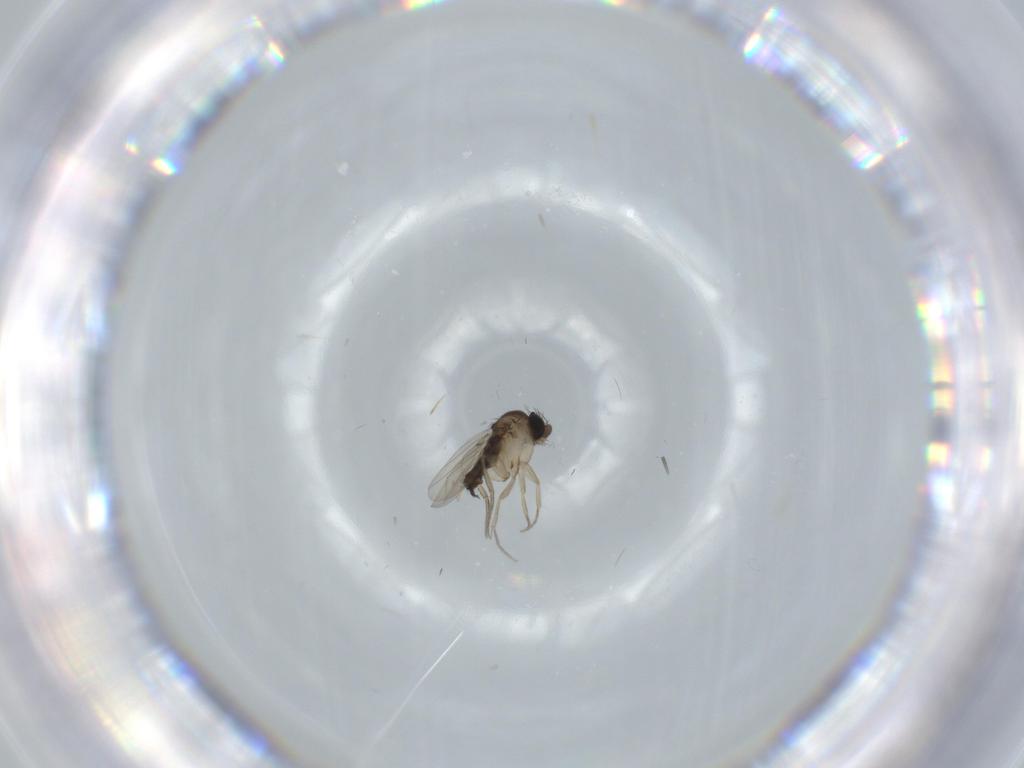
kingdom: Animalia
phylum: Arthropoda
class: Insecta
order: Diptera
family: Phoridae
